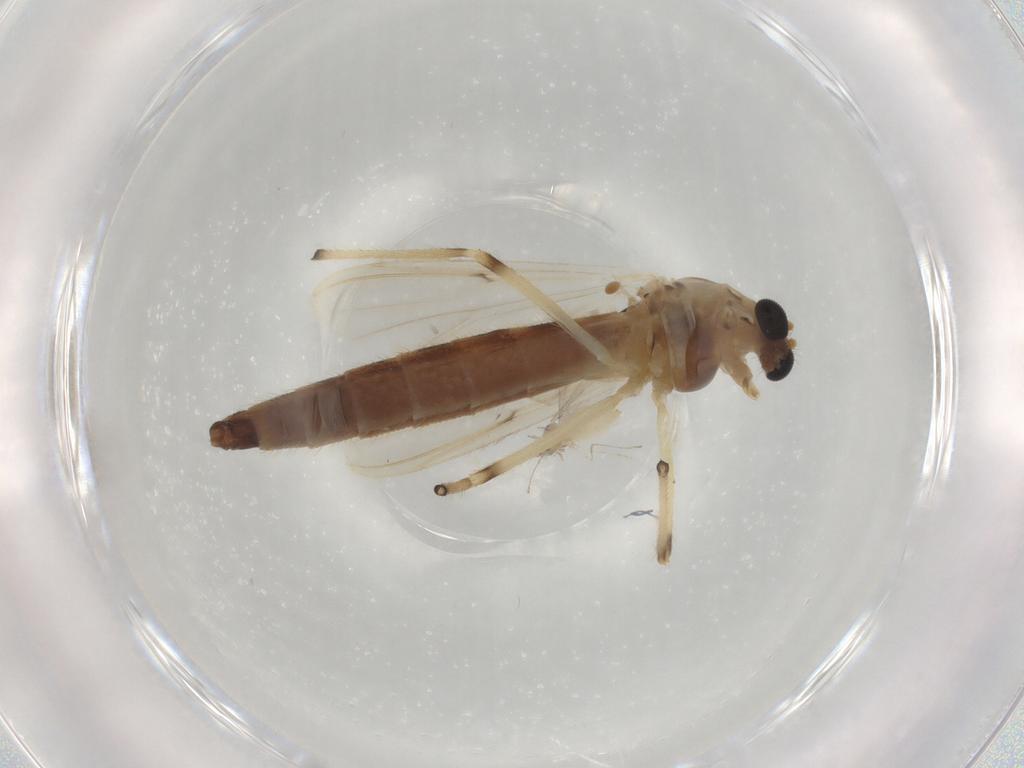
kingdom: Animalia
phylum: Arthropoda
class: Insecta
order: Diptera
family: Chironomidae
